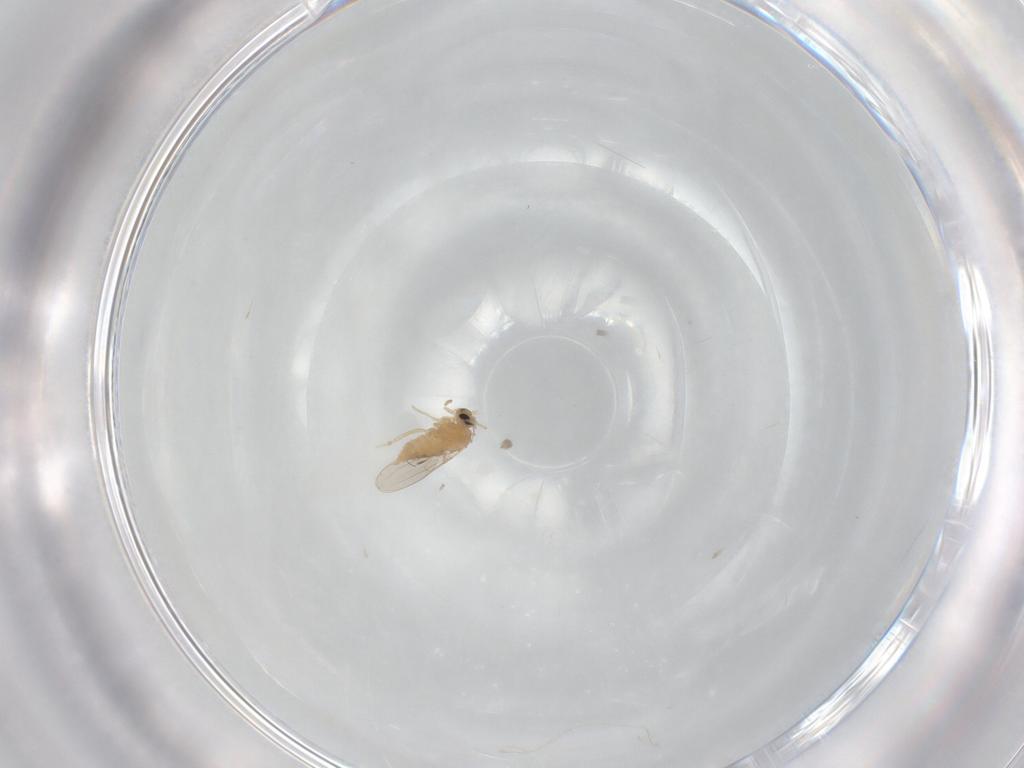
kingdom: Animalia
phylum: Arthropoda
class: Insecta
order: Diptera
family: Cecidomyiidae
